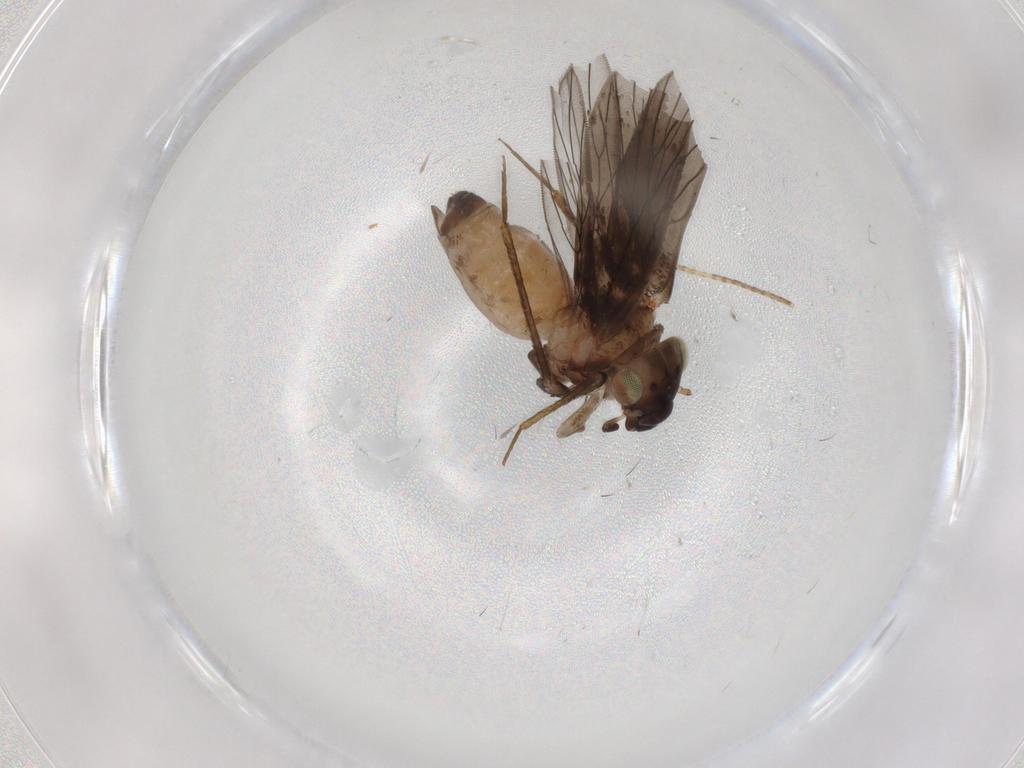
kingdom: Animalia
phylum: Arthropoda
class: Insecta
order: Psocodea
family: Lepidopsocidae
